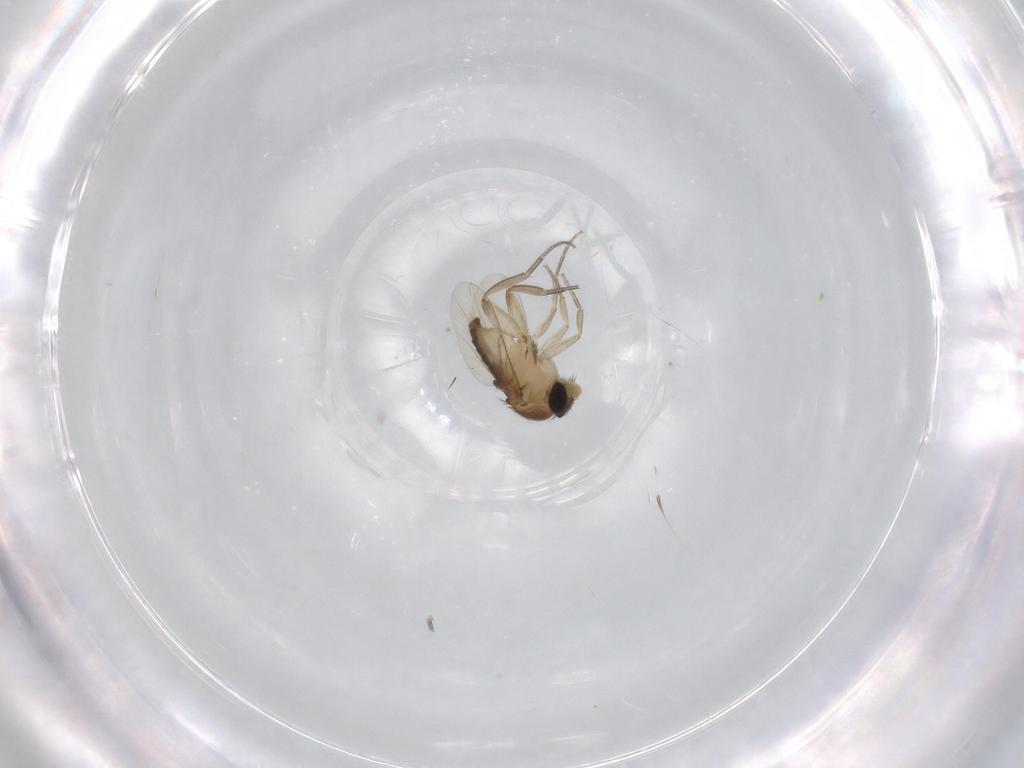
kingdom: Animalia
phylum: Arthropoda
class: Insecta
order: Diptera
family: Phoridae
